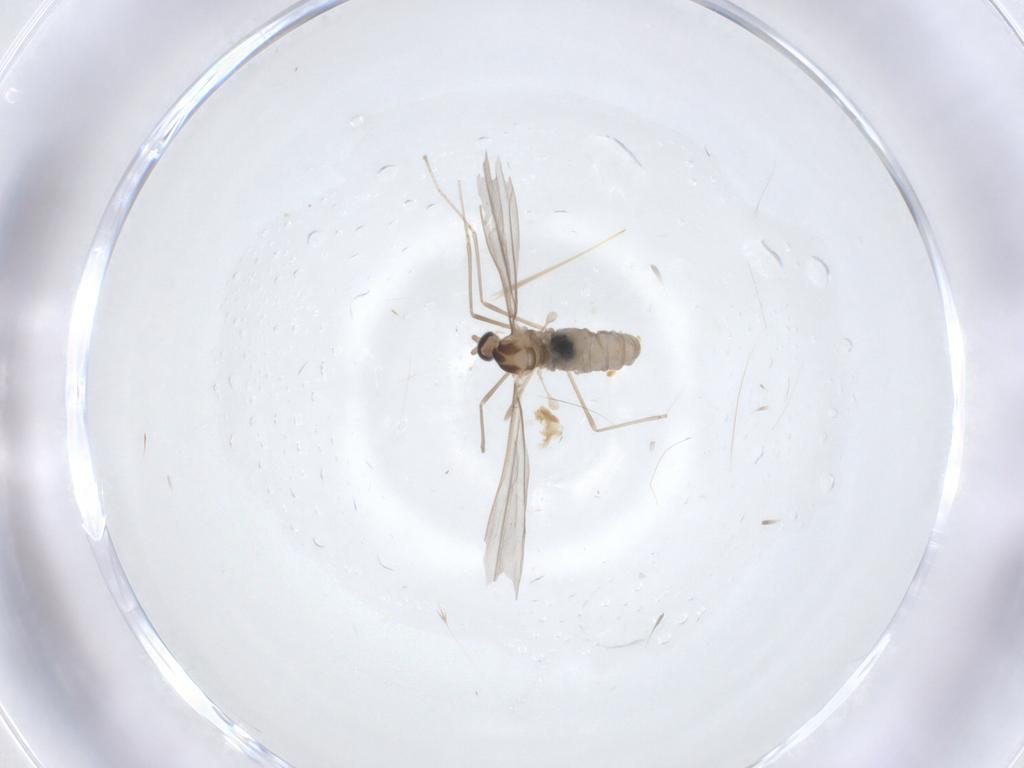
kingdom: Animalia
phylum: Arthropoda
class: Insecta
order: Diptera
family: Cecidomyiidae
